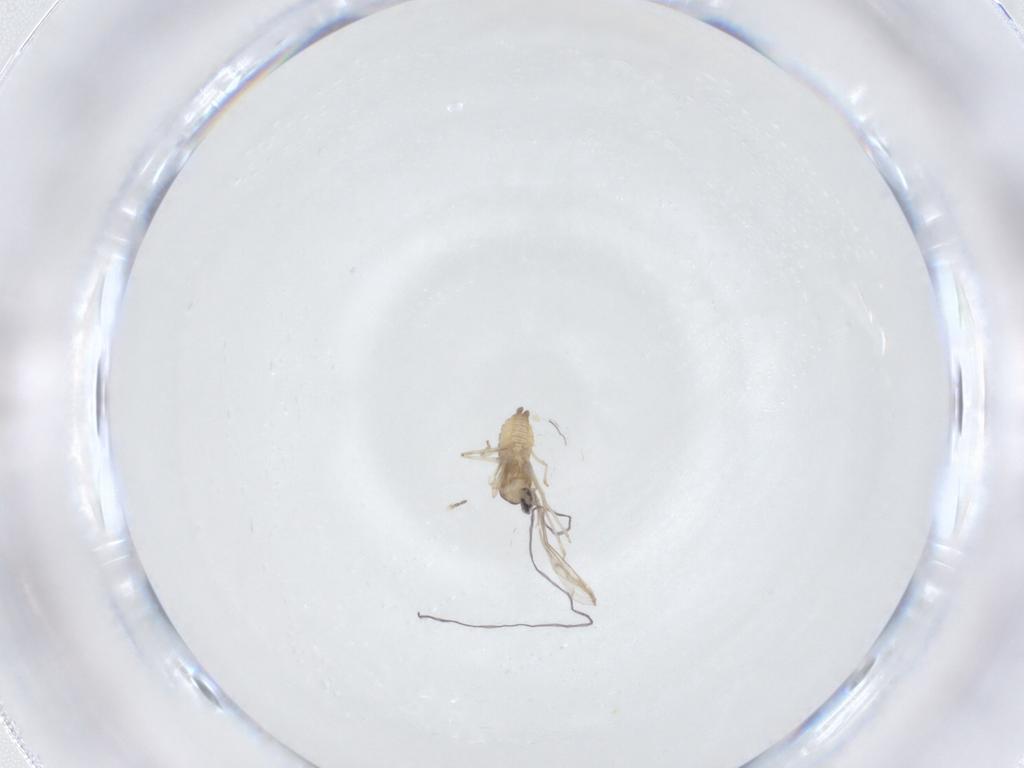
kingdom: Animalia
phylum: Arthropoda
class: Insecta
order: Diptera
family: Cecidomyiidae
